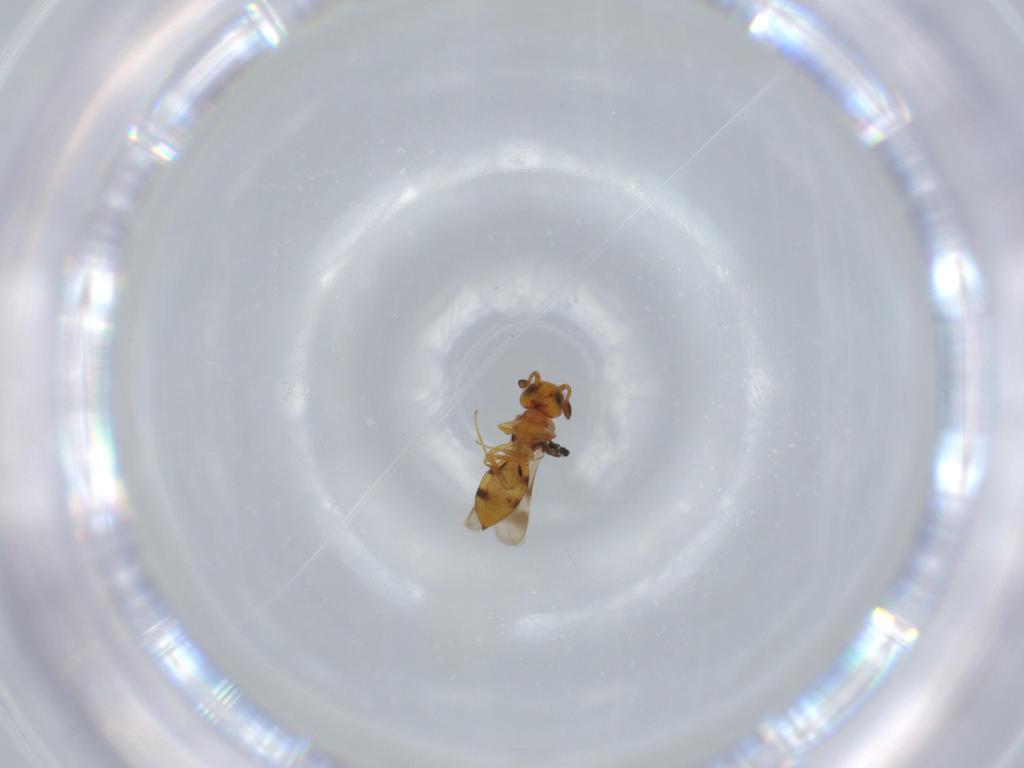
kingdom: Animalia
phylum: Arthropoda
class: Insecta
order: Hymenoptera
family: Scelionidae
